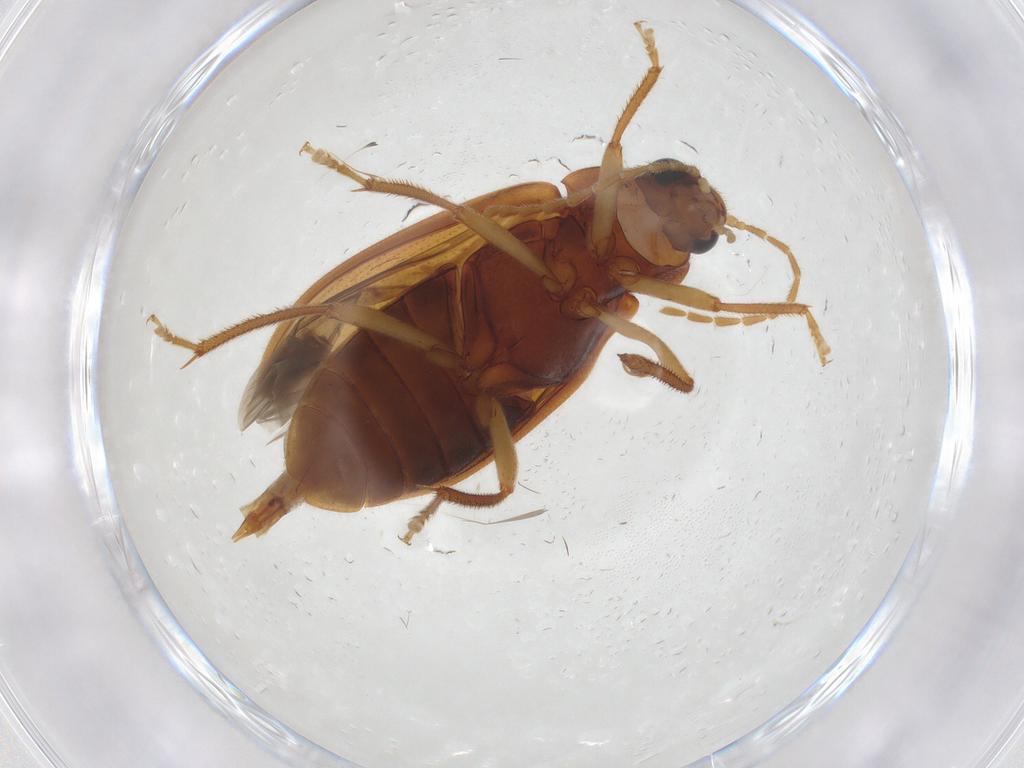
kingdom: Animalia
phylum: Arthropoda
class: Insecta
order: Coleoptera
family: Ptilodactylidae
